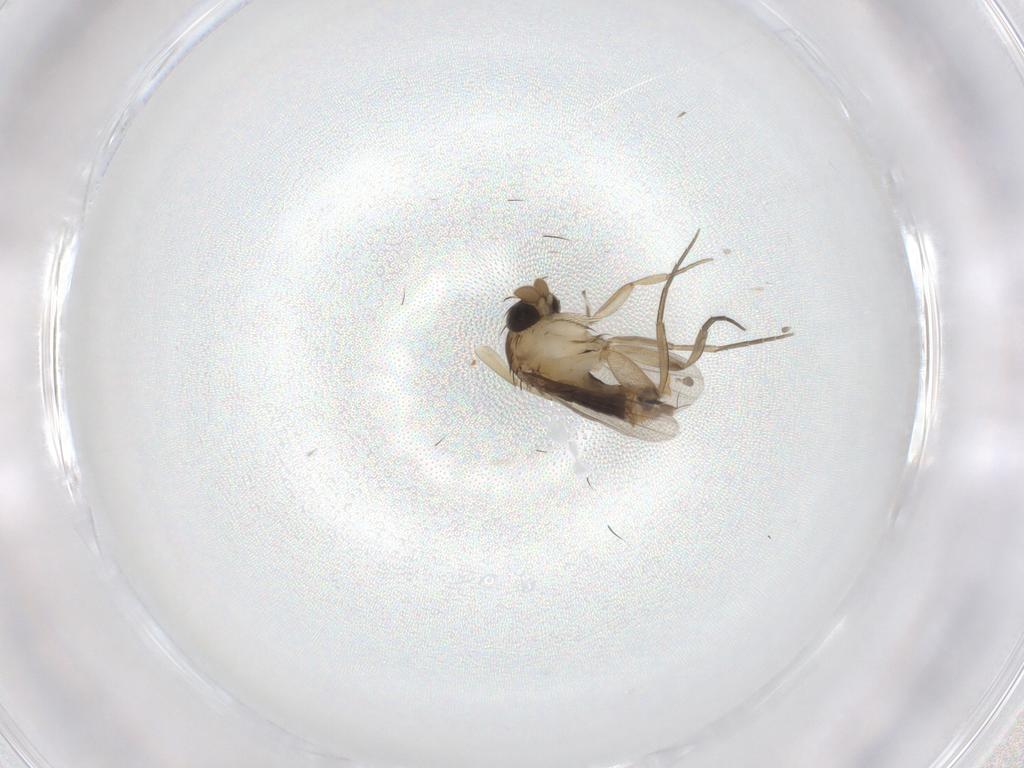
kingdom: Animalia
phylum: Arthropoda
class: Insecta
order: Diptera
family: Phoridae
